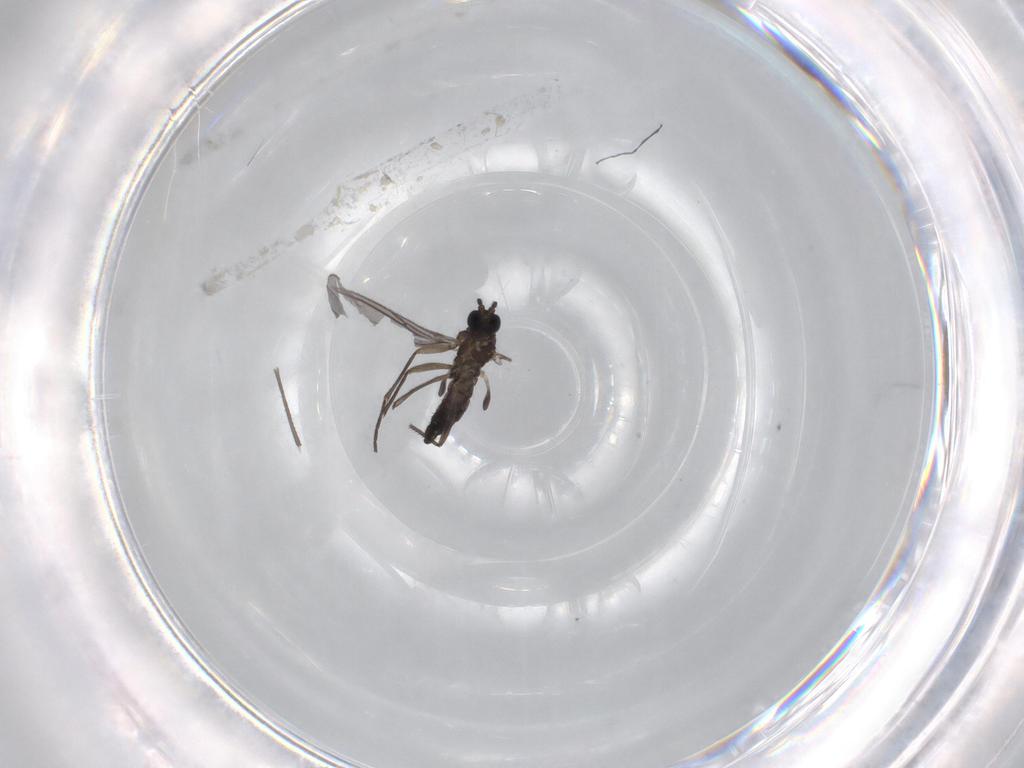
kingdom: Animalia
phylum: Arthropoda
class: Insecta
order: Diptera
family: Sciaridae
